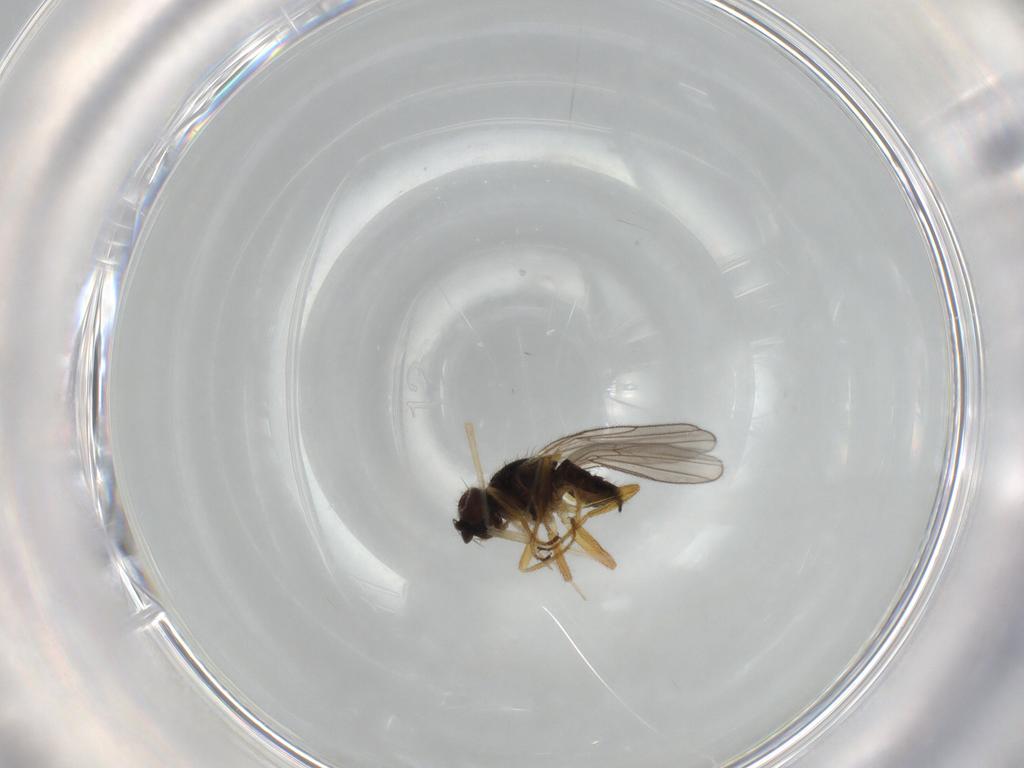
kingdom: Animalia
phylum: Arthropoda
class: Insecta
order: Diptera
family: Chloropidae
